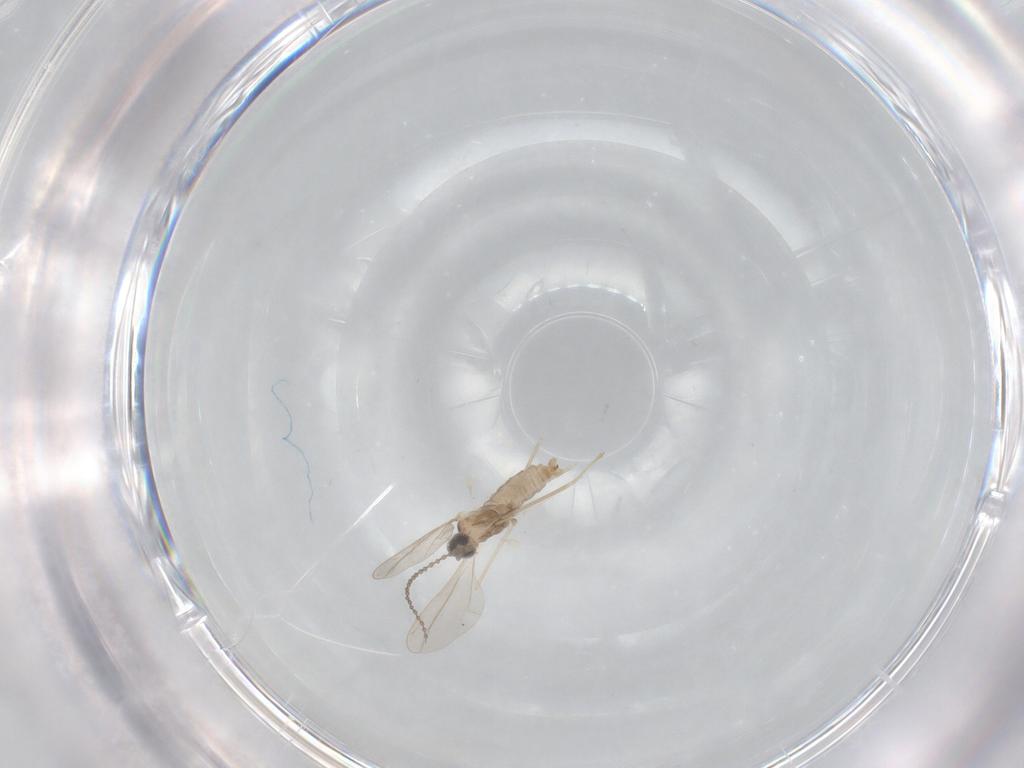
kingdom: Animalia
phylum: Arthropoda
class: Insecta
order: Diptera
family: Cecidomyiidae
